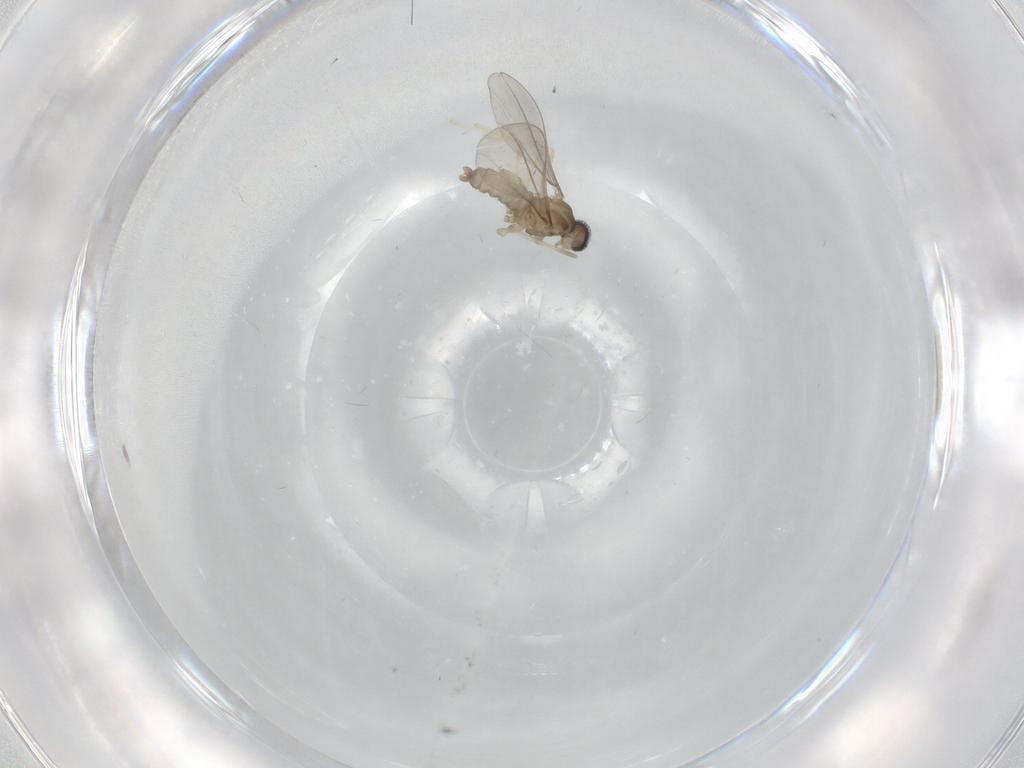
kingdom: Animalia
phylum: Arthropoda
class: Insecta
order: Diptera
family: Cecidomyiidae
